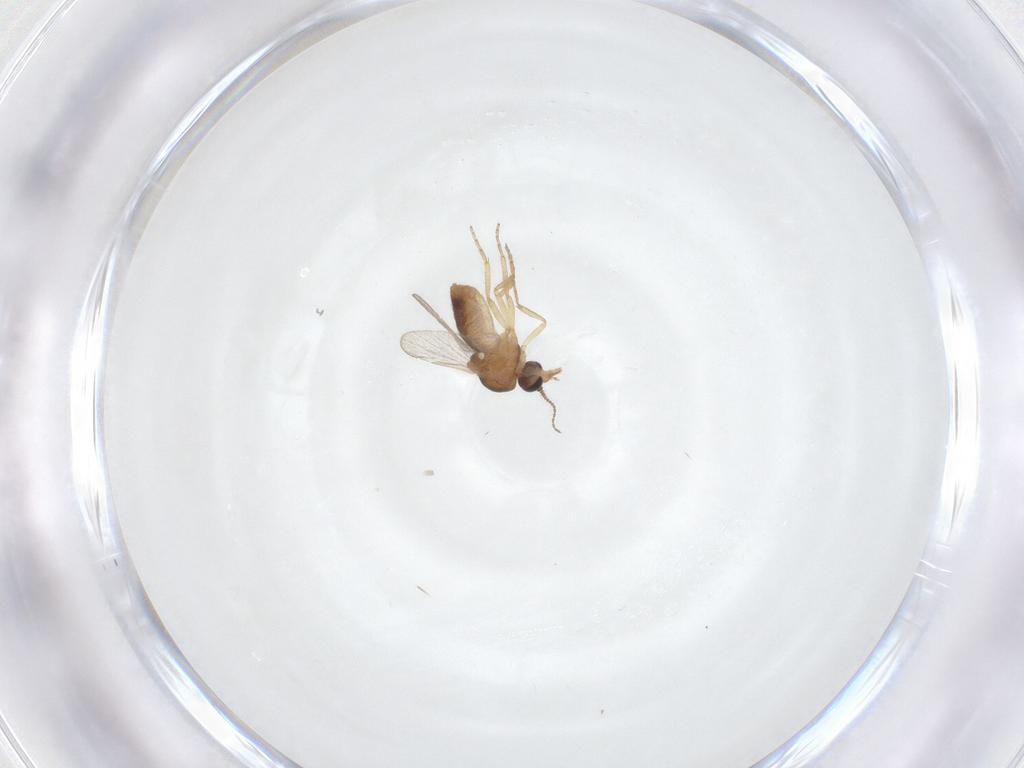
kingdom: Animalia
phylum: Arthropoda
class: Insecta
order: Diptera
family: Ceratopogonidae
